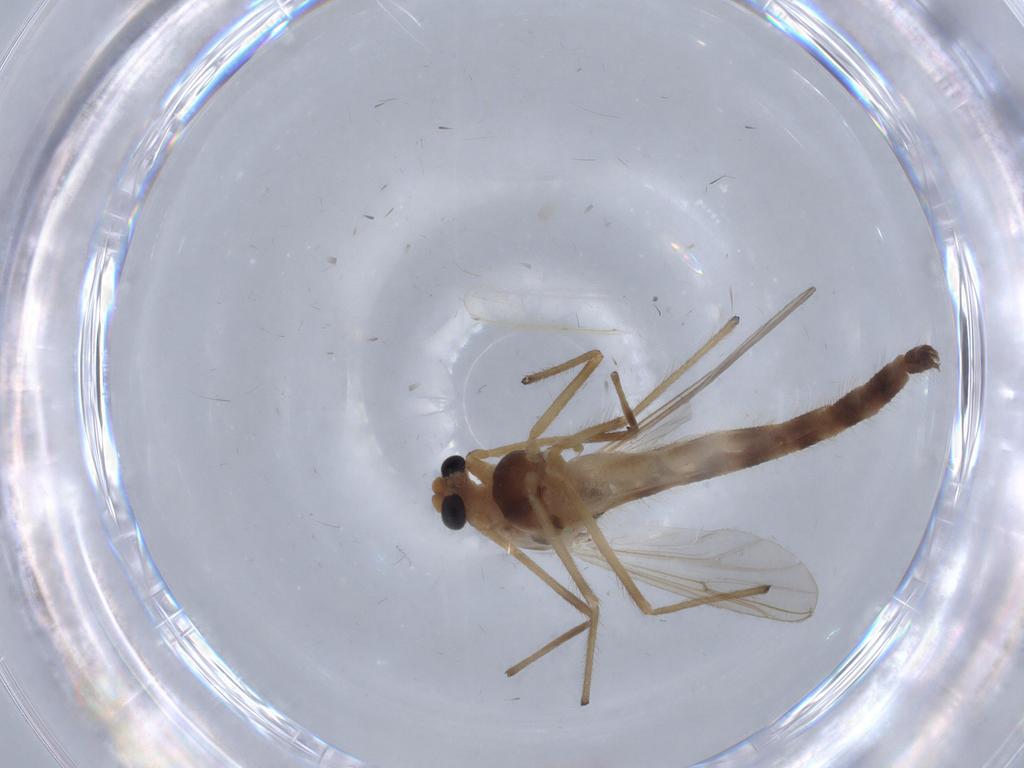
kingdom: Animalia
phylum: Arthropoda
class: Insecta
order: Diptera
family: Chironomidae
